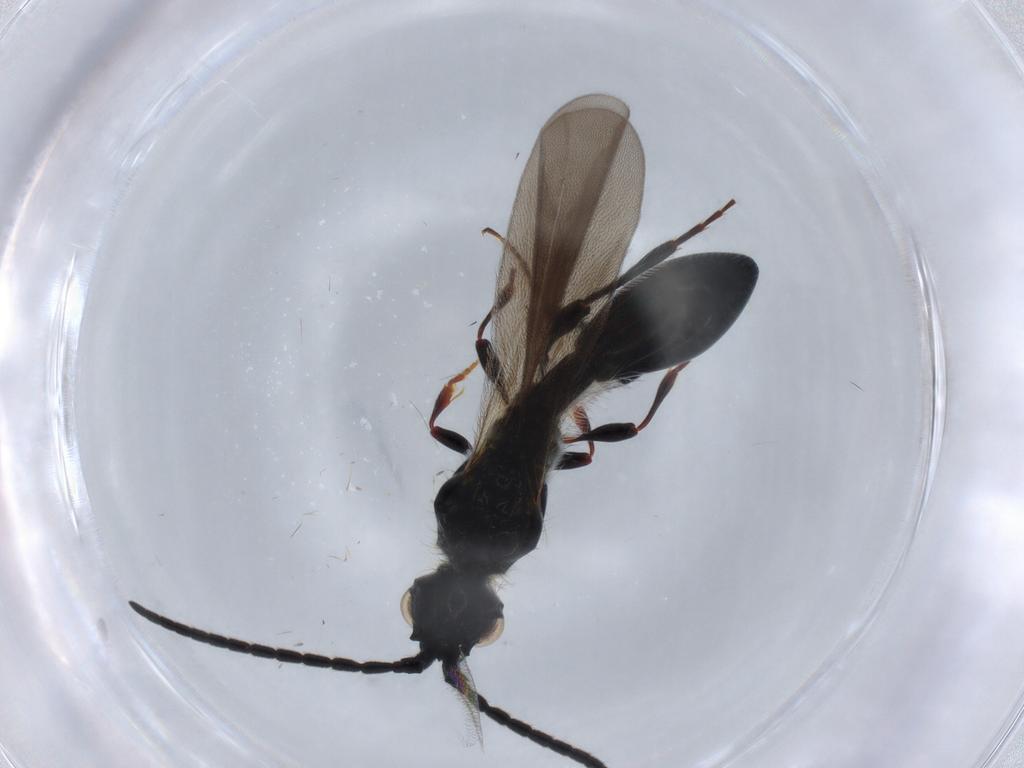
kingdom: Animalia
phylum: Arthropoda
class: Insecta
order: Hymenoptera
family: Diapriidae
